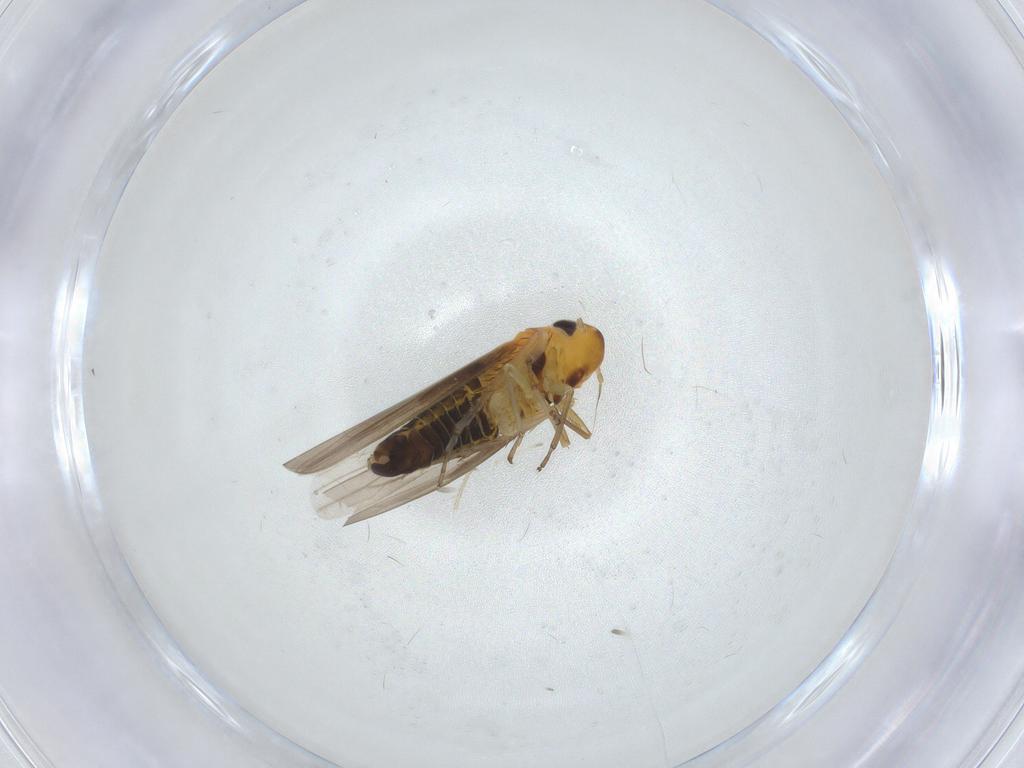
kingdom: Animalia
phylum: Arthropoda
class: Insecta
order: Hemiptera
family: Cicadellidae
